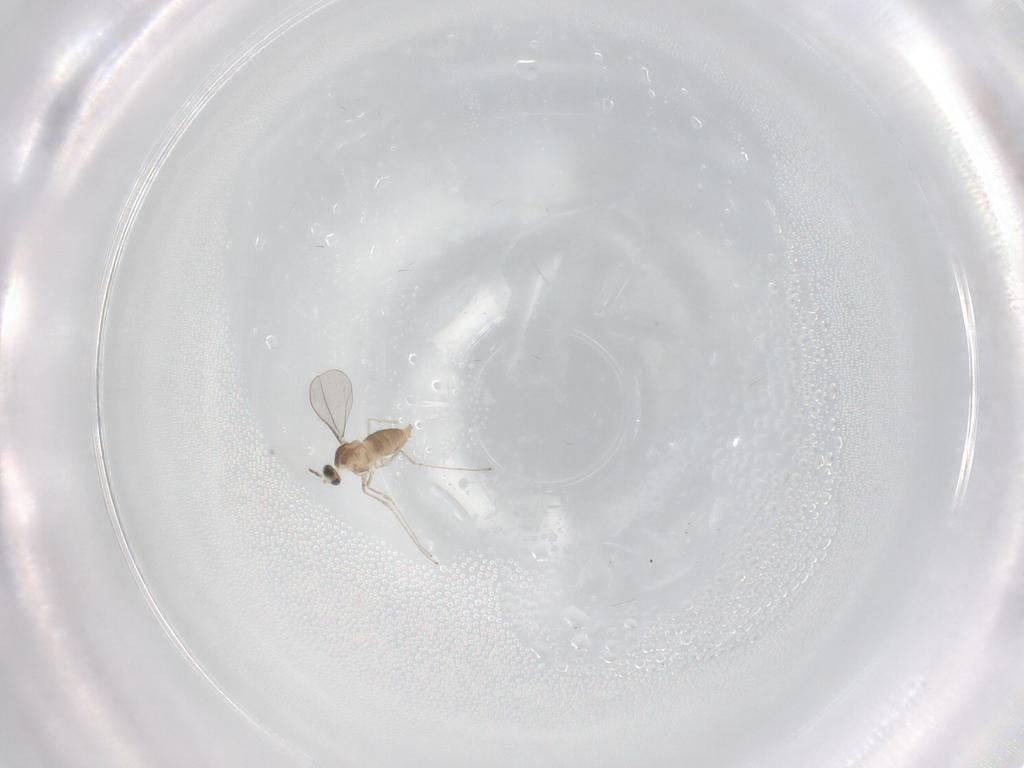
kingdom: Animalia
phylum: Arthropoda
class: Insecta
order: Diptera
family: Cecidomyiidae
